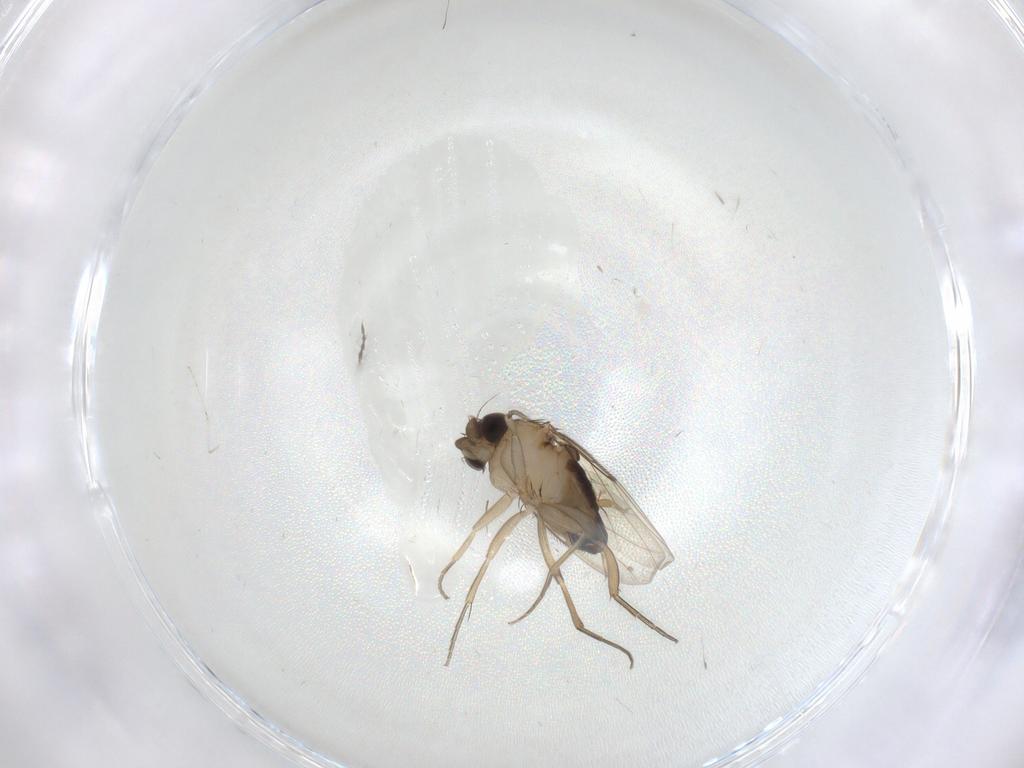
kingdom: Animalia
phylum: Arthropoda
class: Insecta
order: Diptera
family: Phoridae
